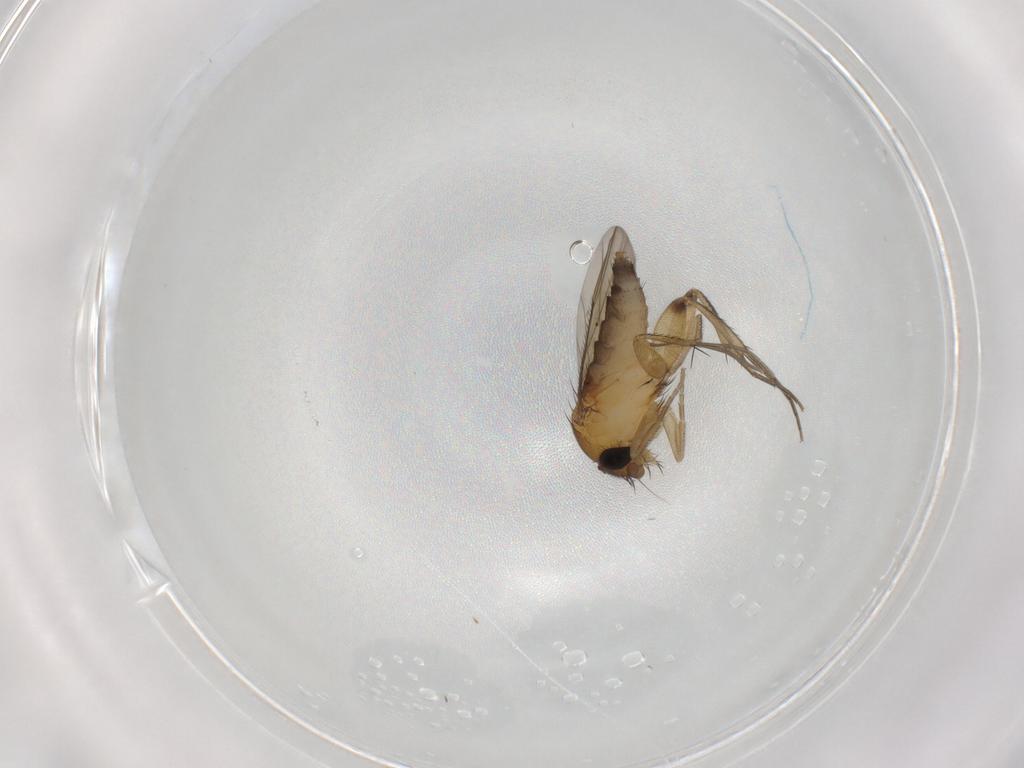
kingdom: Animalia
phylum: Arthropoda
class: Insecta
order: Diptera
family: Phoridae
